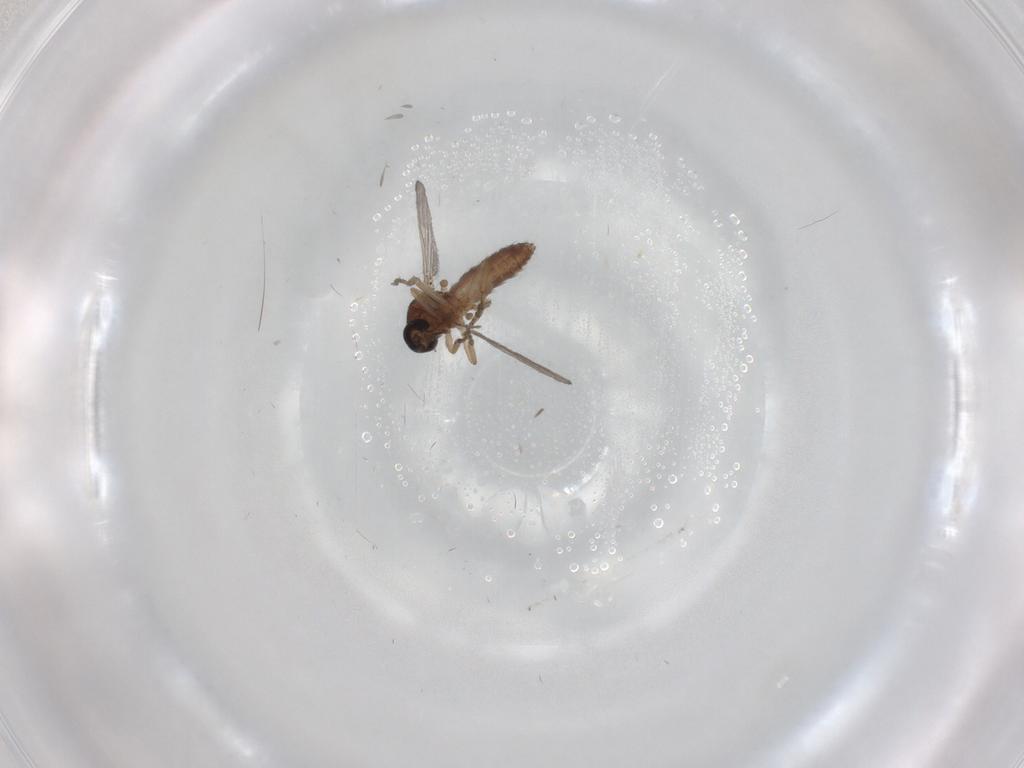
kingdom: Animalia
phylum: Arthropoda
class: Insecta
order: Diptera
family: Ceratopogonidae
